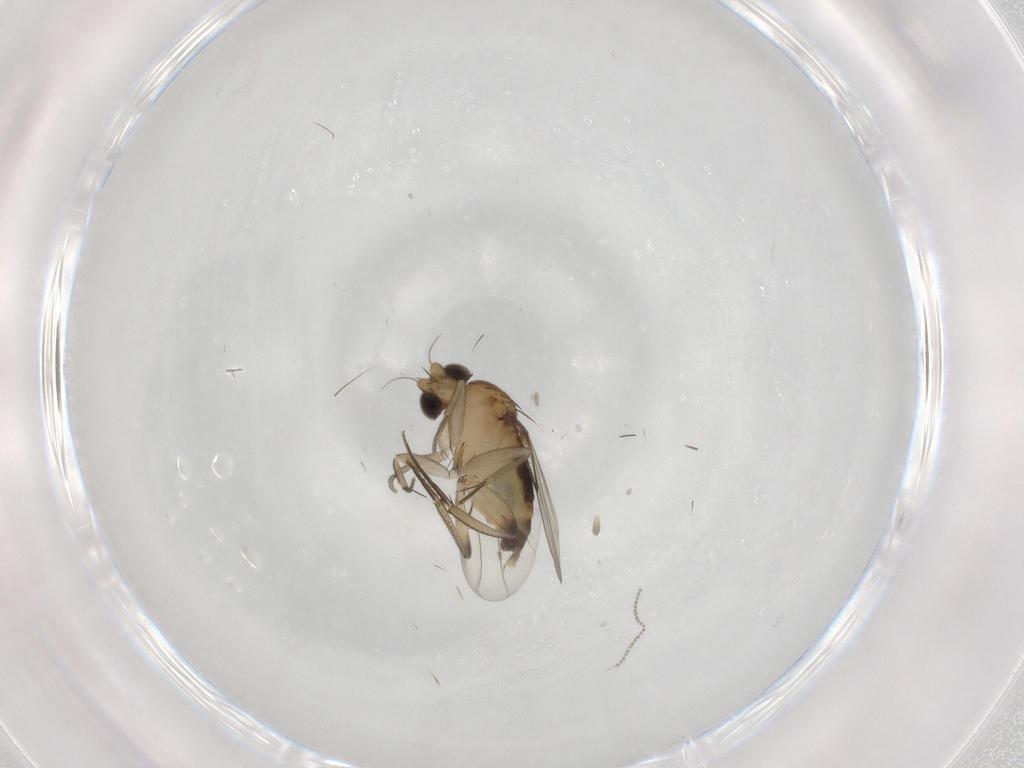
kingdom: Animalia
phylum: Arthropoda
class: Insecta
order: Diptera
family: Phoridae
